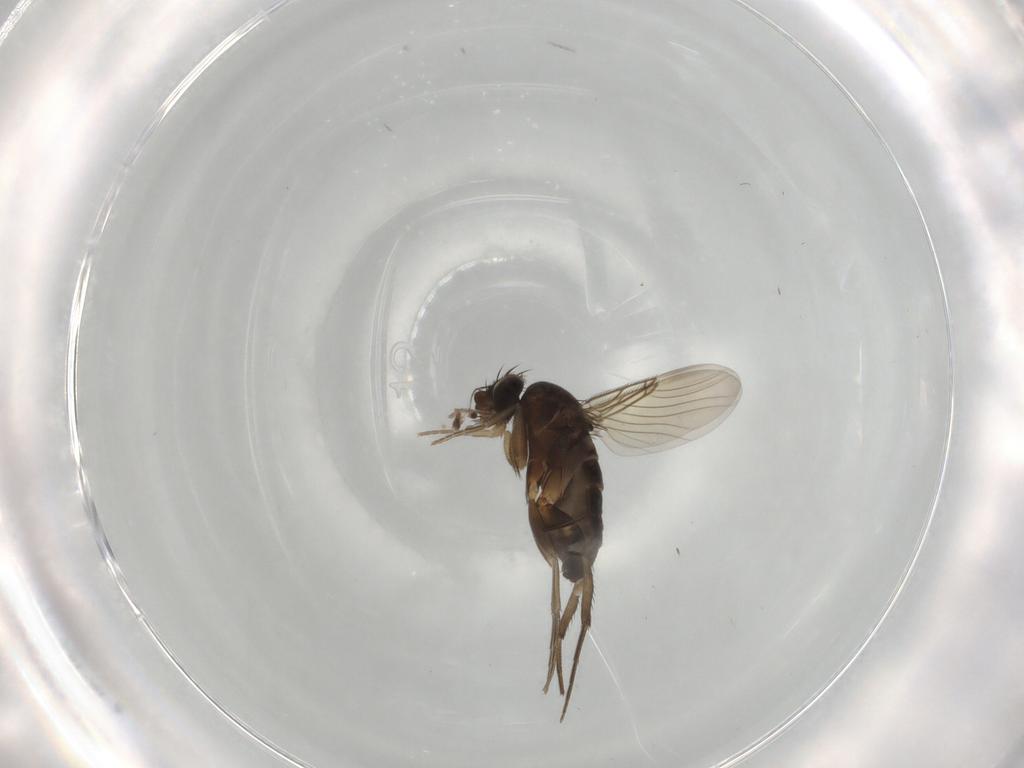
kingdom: Animalia
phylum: Arthropoda
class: Insecta
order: Diptera
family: Phoridae
